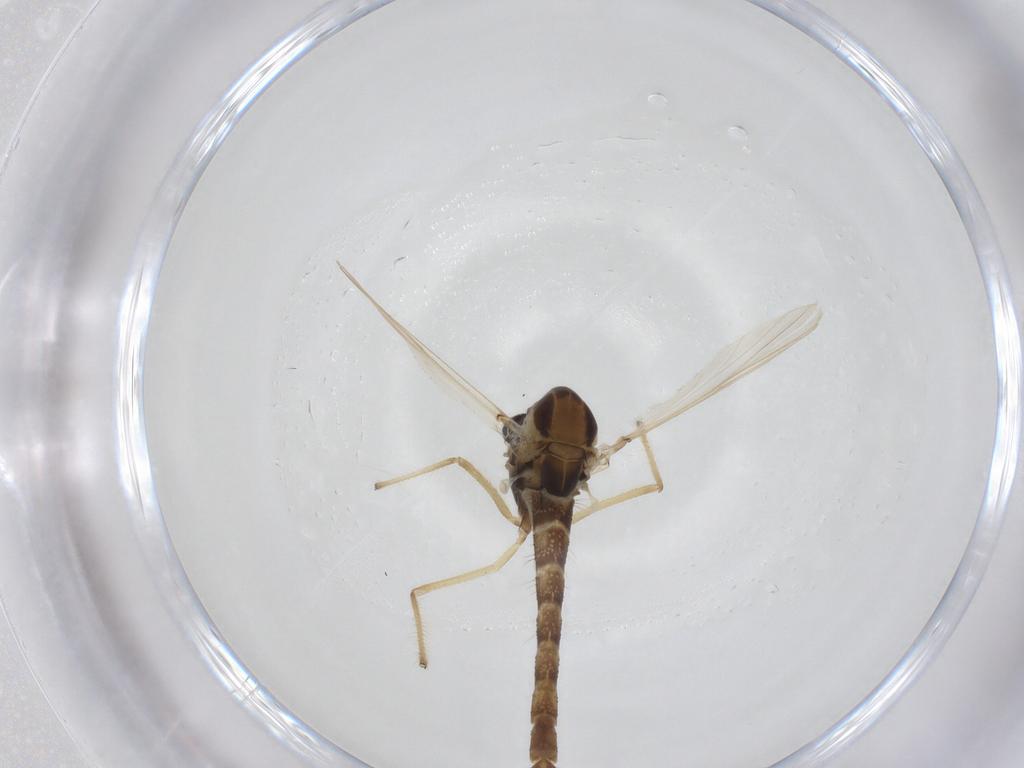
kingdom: Animalia
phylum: Arthropoda
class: Insecta
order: Diptera
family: Chironomidae
